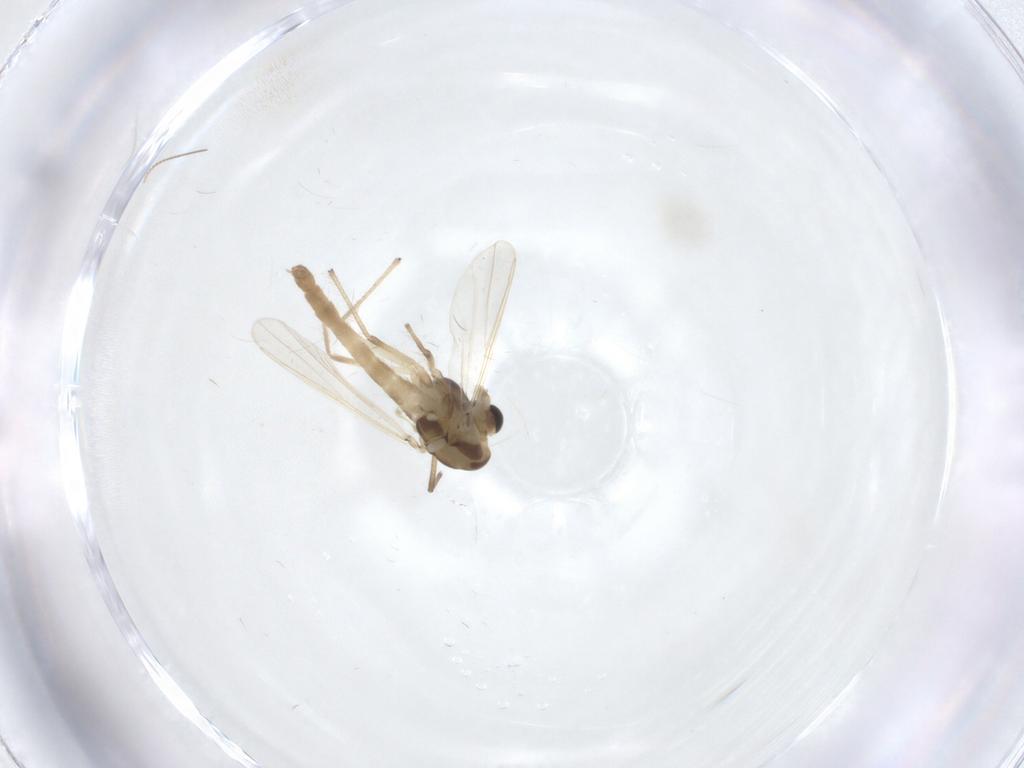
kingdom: Animalia
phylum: Arthropoda
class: Insecta
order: Diptera
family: Chironomidae
